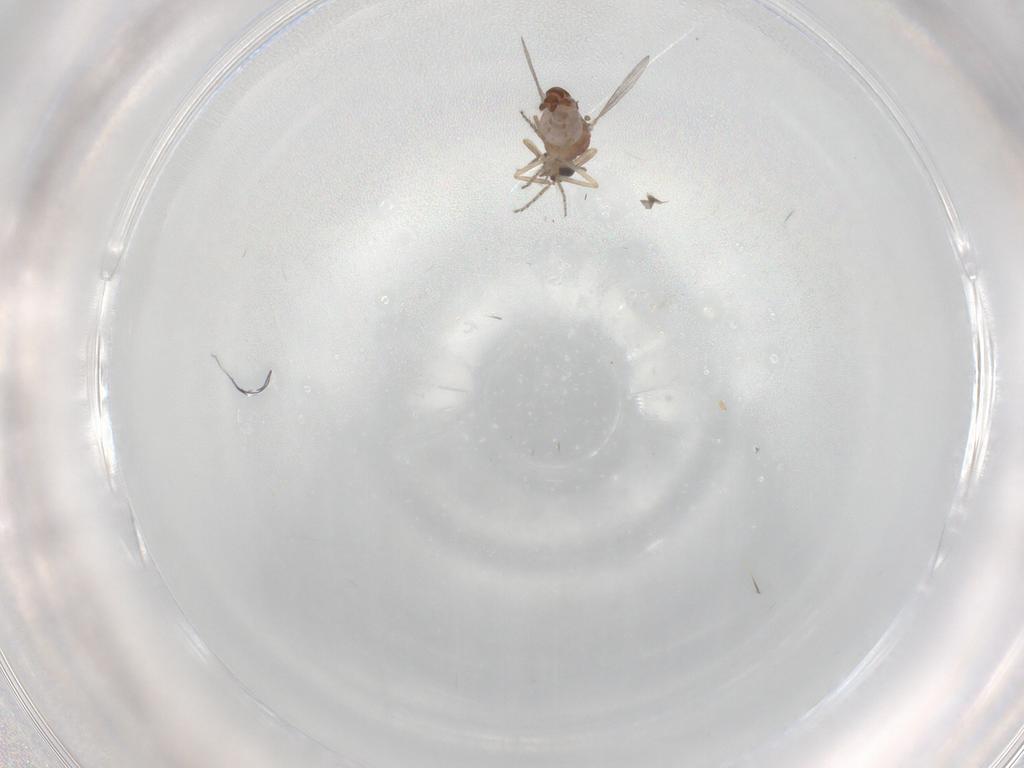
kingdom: Animalia
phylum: Arthropoda
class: Insecta
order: Diptera
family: Ceratopogonidae
